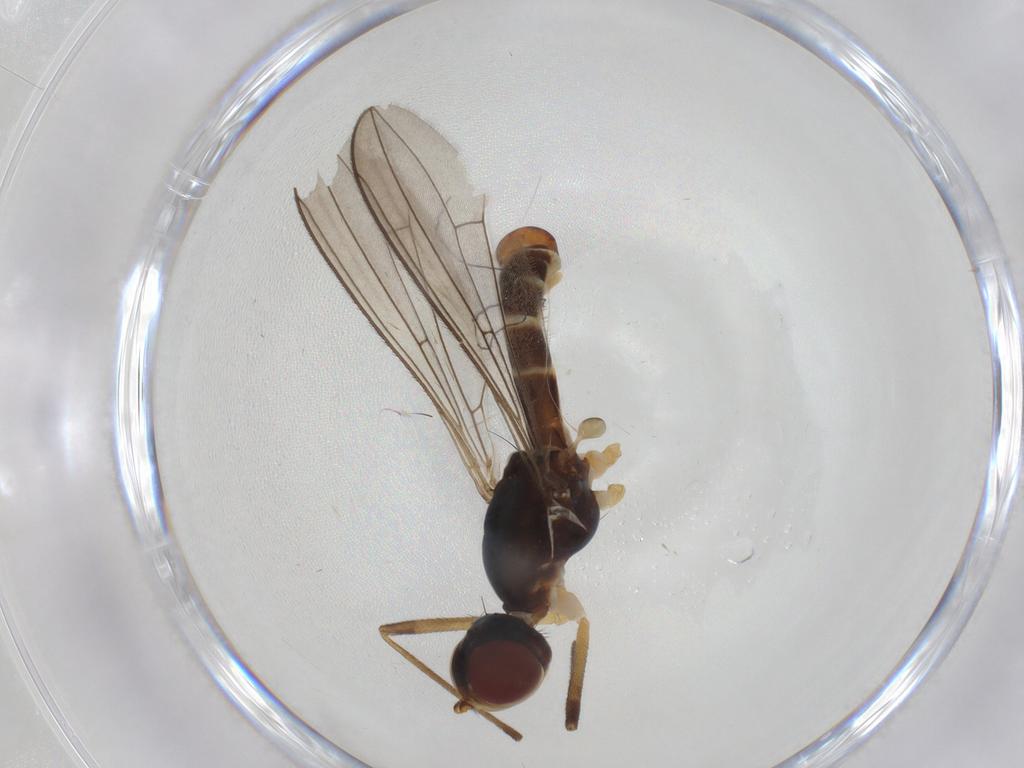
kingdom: Animalia
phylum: Arthropoda
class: Insecta
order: Diptera
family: Micropezidae
